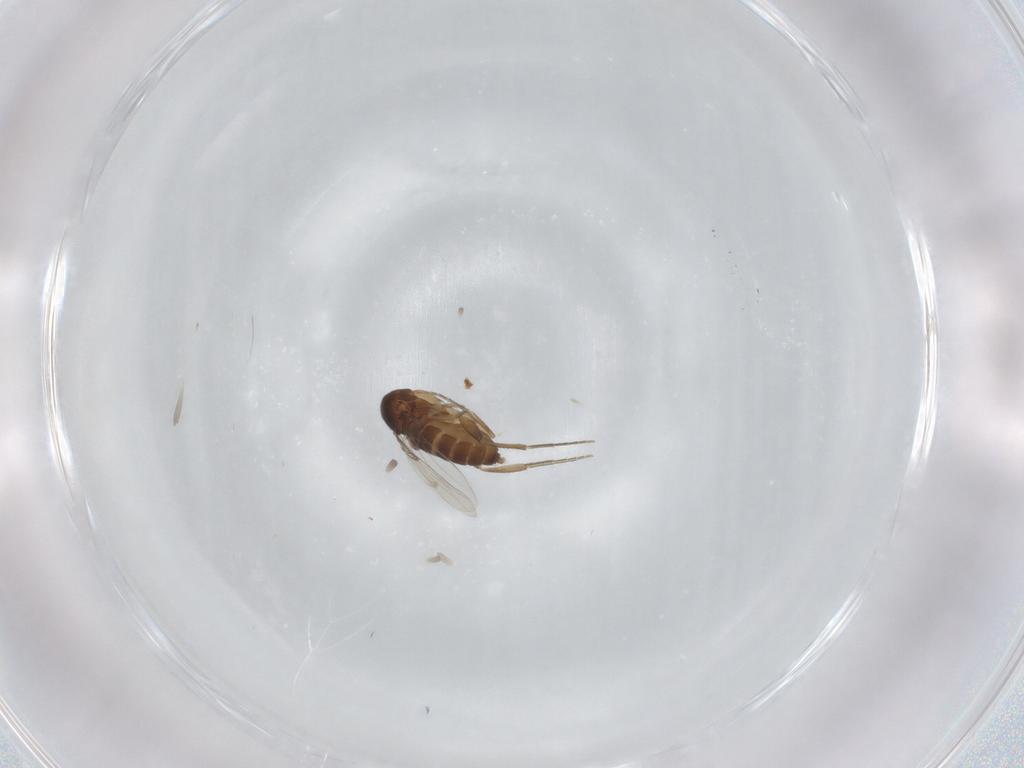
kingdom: Animalia
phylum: Arthropoda
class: Insecta
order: Diptera
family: Phoridae
